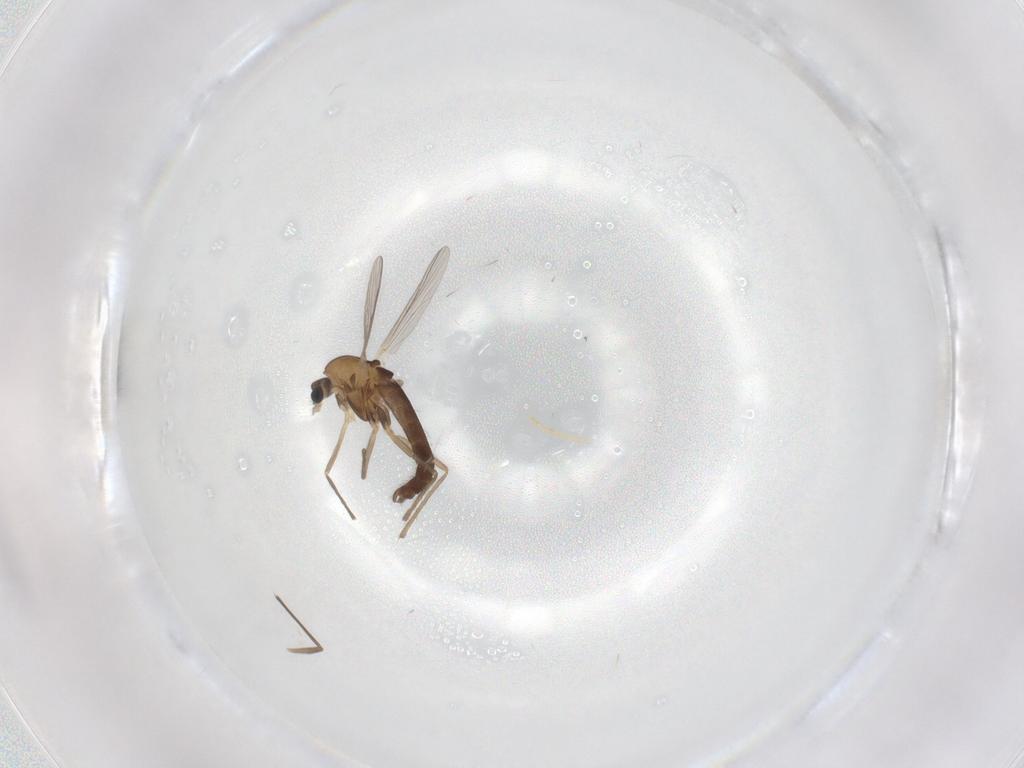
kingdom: Animalia
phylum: Arthropoda
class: Insecta
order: Diptera
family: Chironomidae
